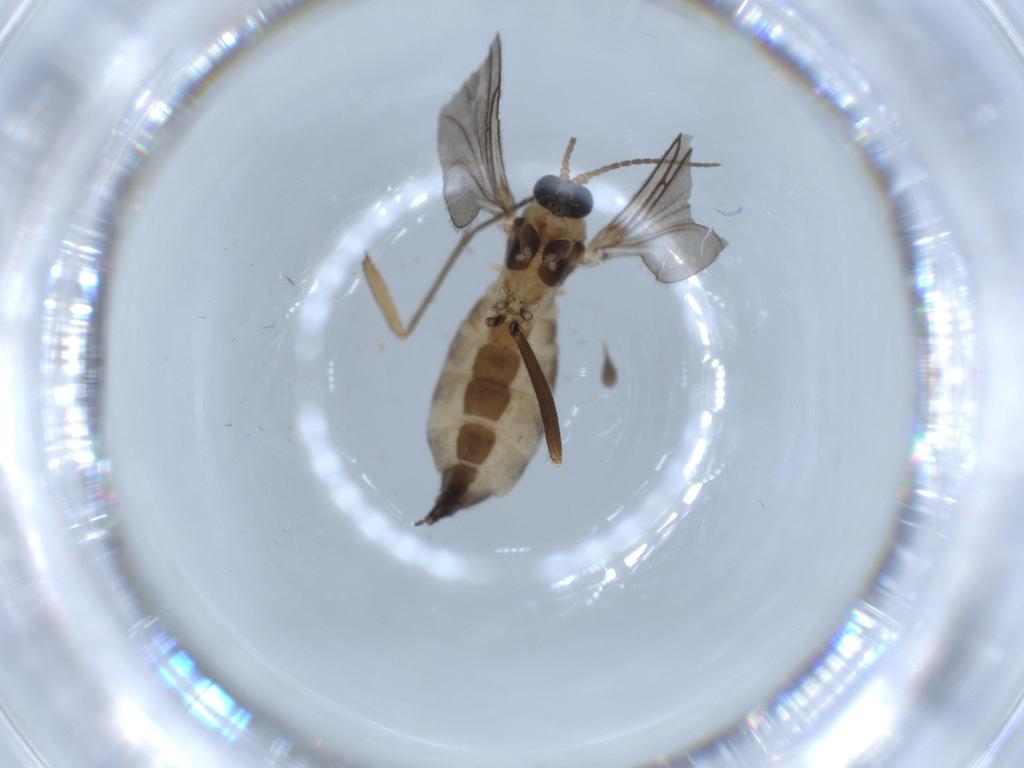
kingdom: Animalia
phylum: Arthropoda
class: Insecta
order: Diptera
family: Sciaridae
